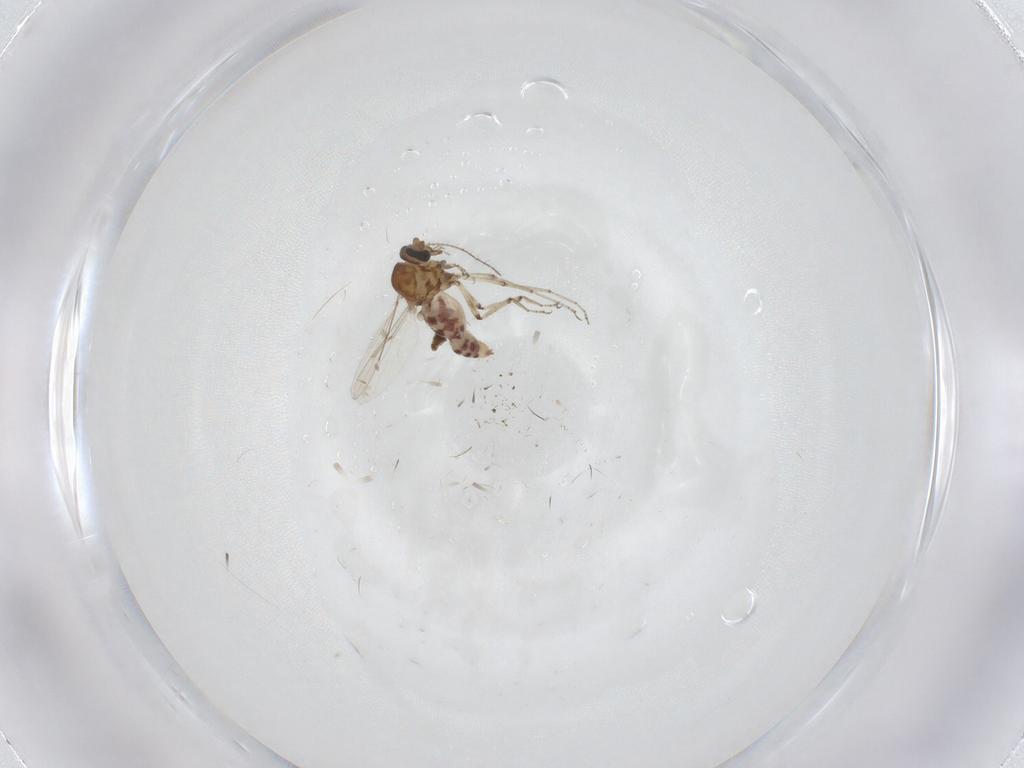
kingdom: Animalia
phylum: Arthropoda
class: Insecta
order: Diptera
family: Ceratopogonidae
